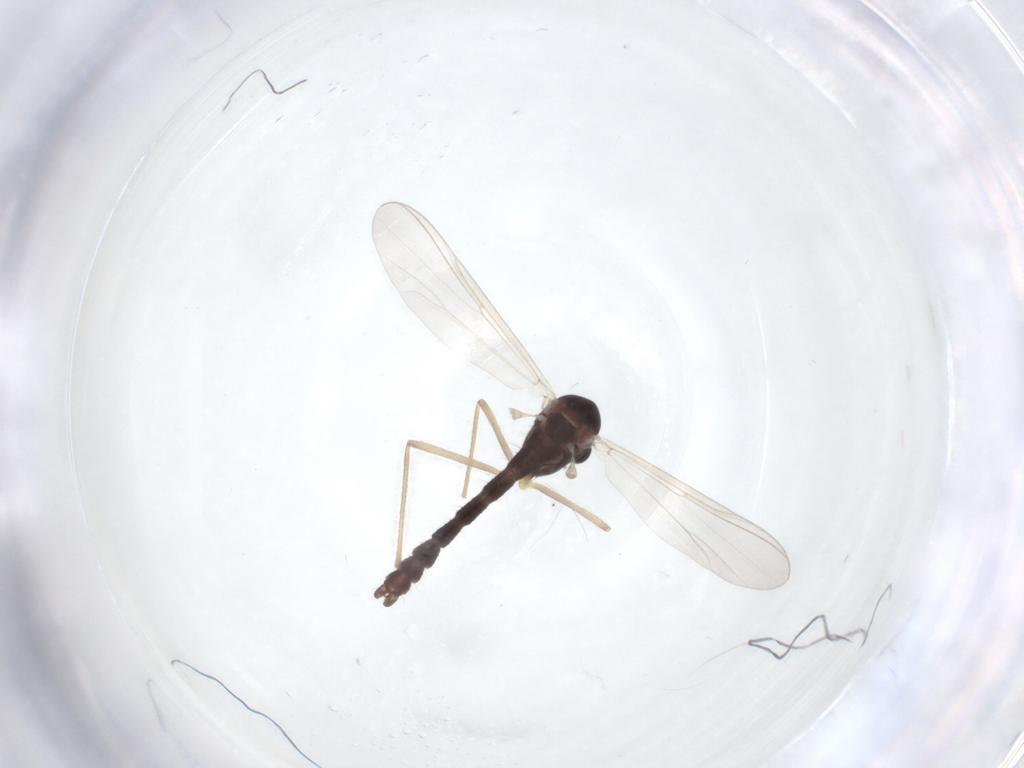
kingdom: Animalia
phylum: Arthropoda
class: Insecta
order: Diptera
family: Chironomidae
